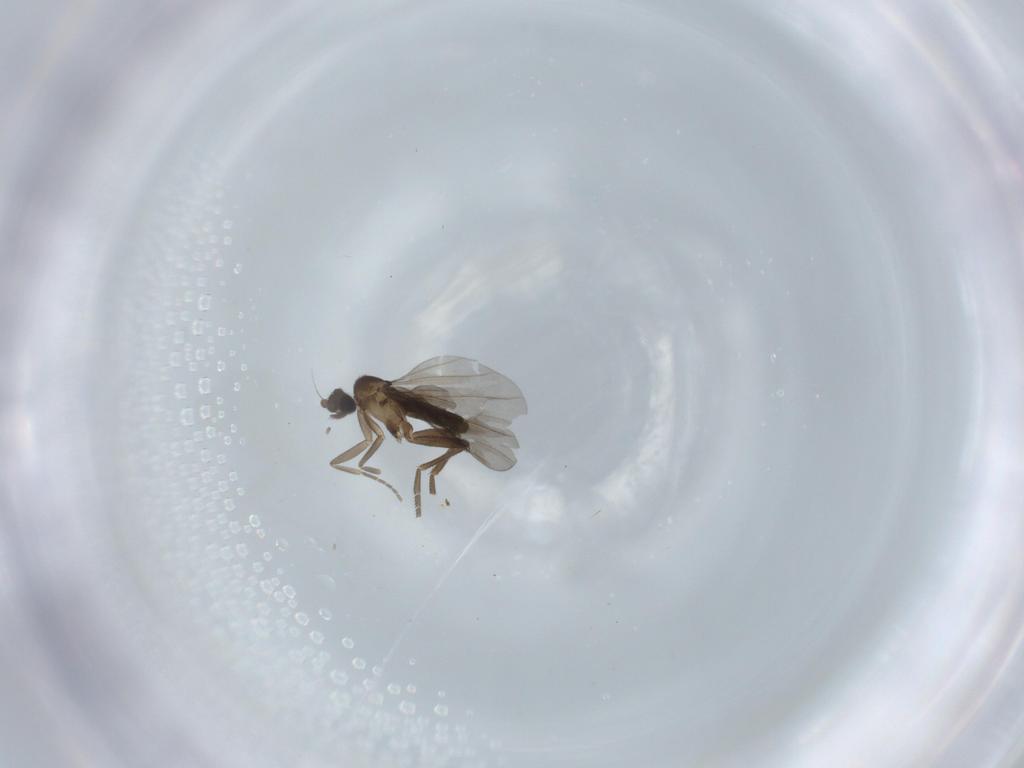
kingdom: Animalia
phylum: Arthropoda
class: Insecta
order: Diptera
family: Phoridae
